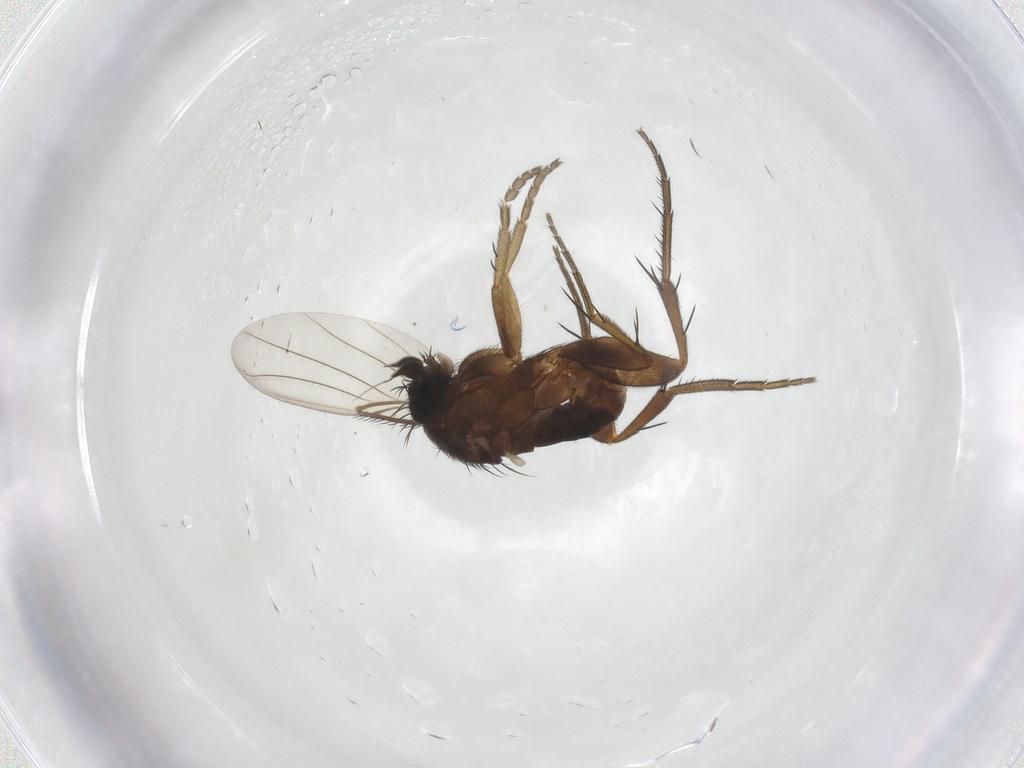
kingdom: Animalia
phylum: Arthropoda
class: Insecta
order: Diptera
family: Phoridae
